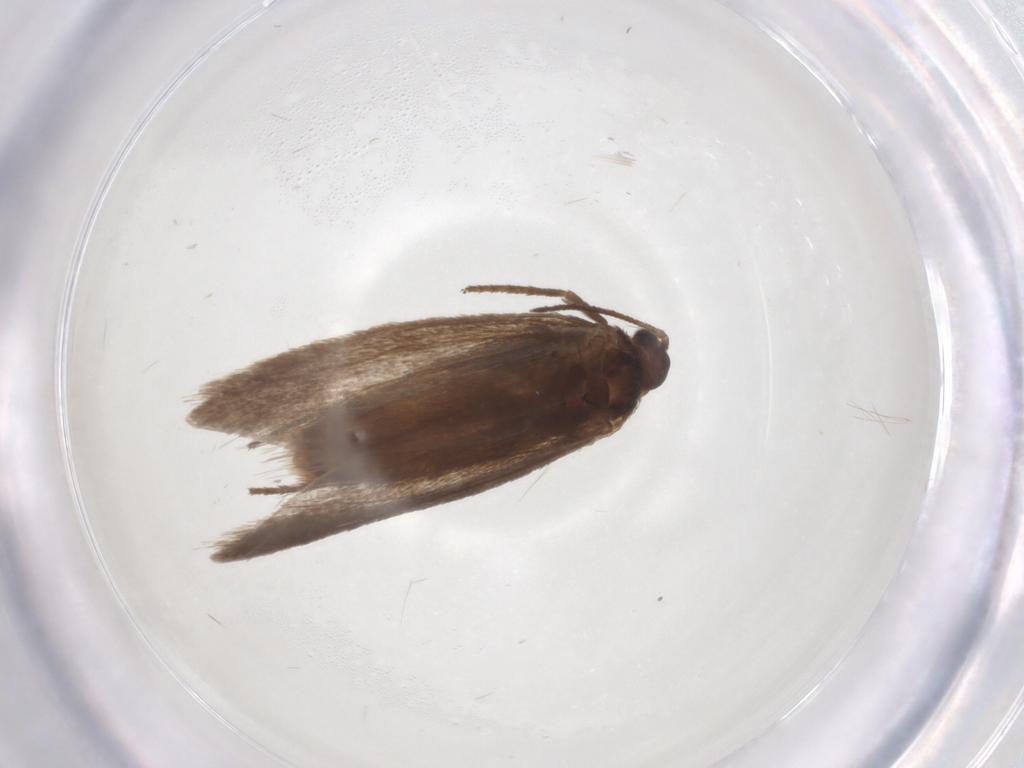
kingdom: Animalia
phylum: Arthropoda
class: Insecta
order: Lepidoptera
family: Limacodidae
